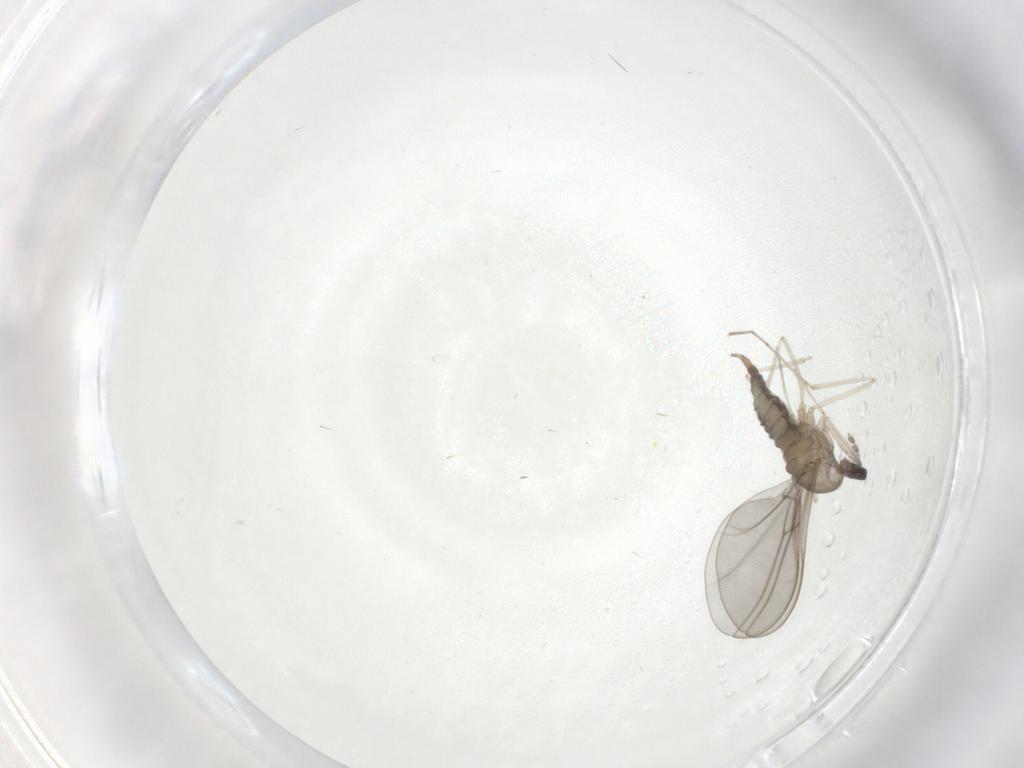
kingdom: Animalia
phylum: Arthropoda
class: Insecta
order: Diptera
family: Cecidomyiidae
